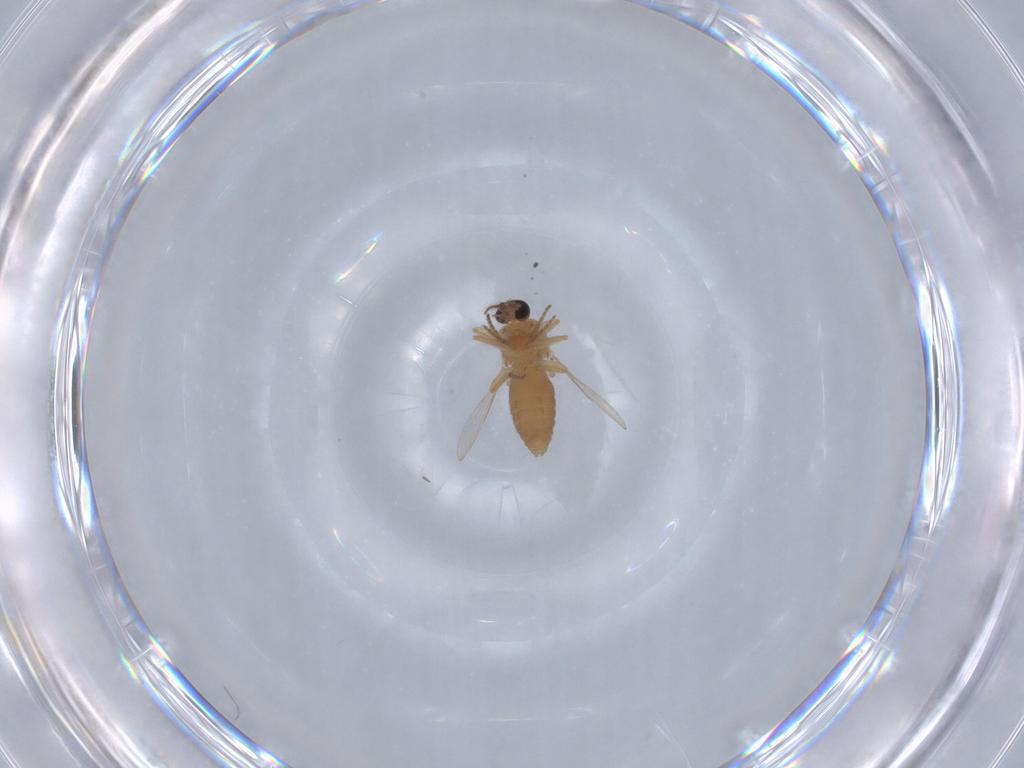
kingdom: Animalia
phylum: Arthropoda
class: Insecta
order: Diptera
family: Ceratopogonidae
